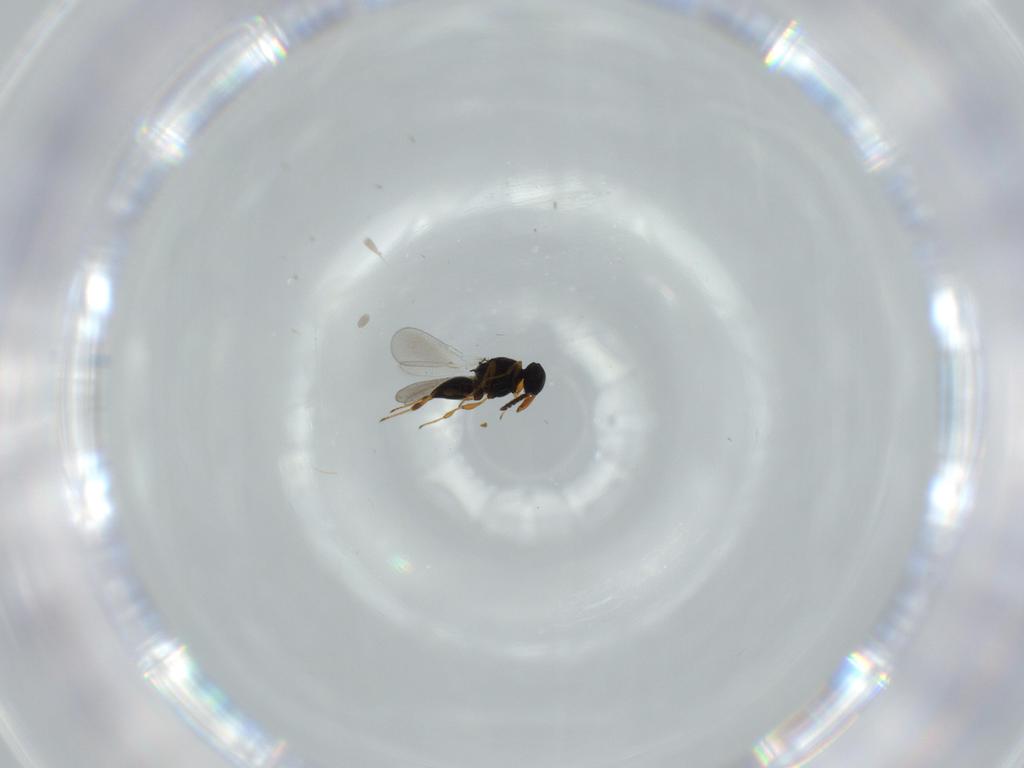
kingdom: Animalia
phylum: Arthropoda
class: Insecta
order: Hymenoptera
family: Platygastridae
